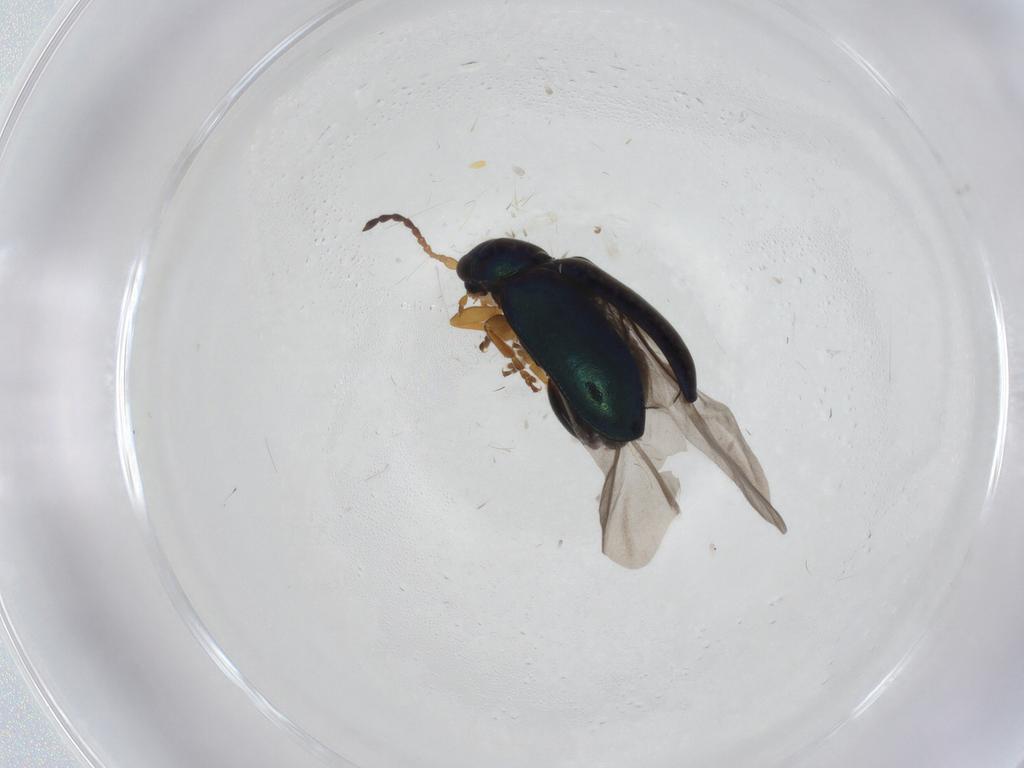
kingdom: Animalia
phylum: Arthropoda
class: Insecta
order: Coleoptera
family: Chrysomelidae
